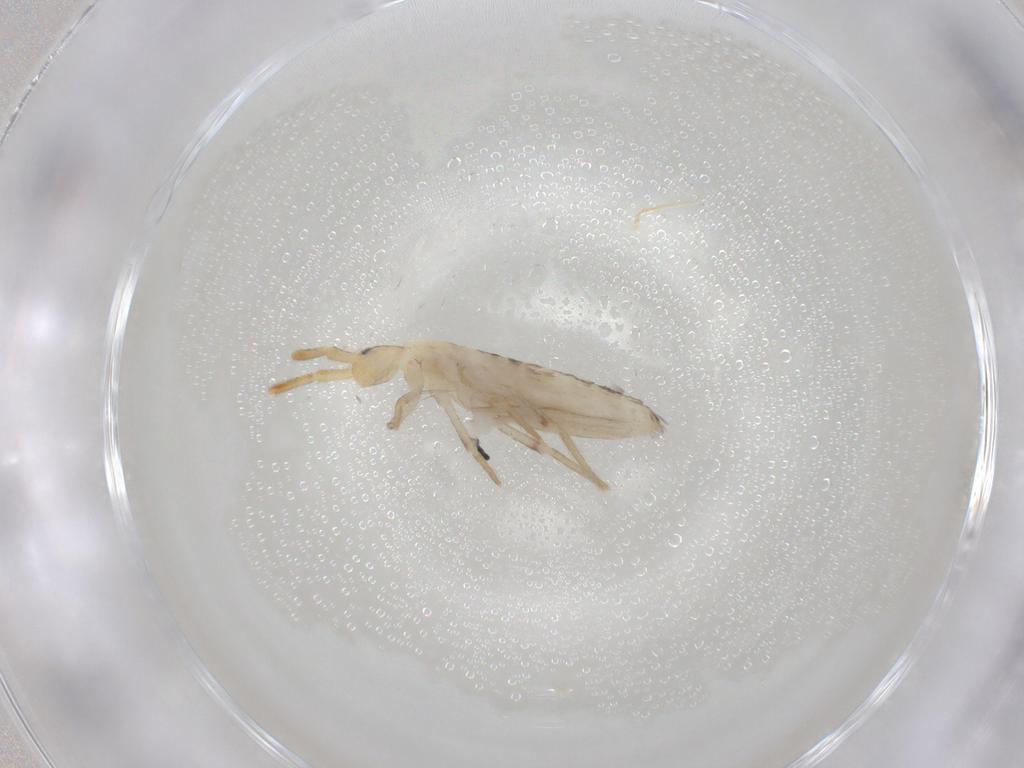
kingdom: Animalia
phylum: Arthropoda
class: Collembola
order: Poduromorpha
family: Hypogastruridae
